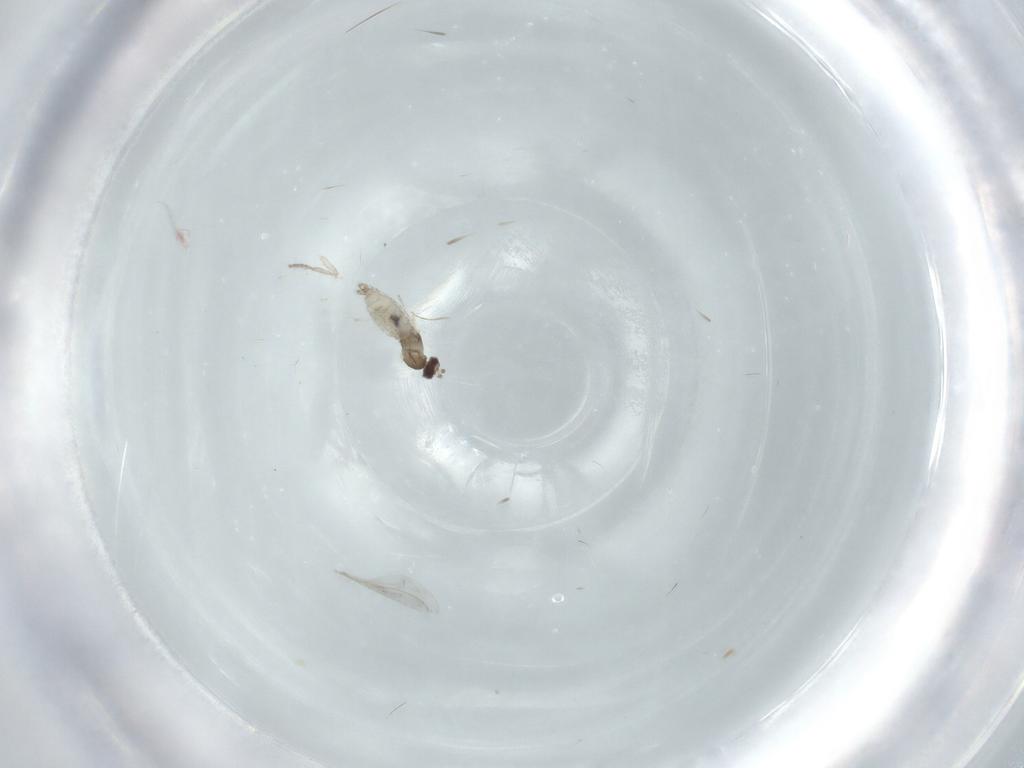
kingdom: Animalia
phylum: Arthropoda
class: Insecta
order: Diptera
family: Cecidomyiidae
